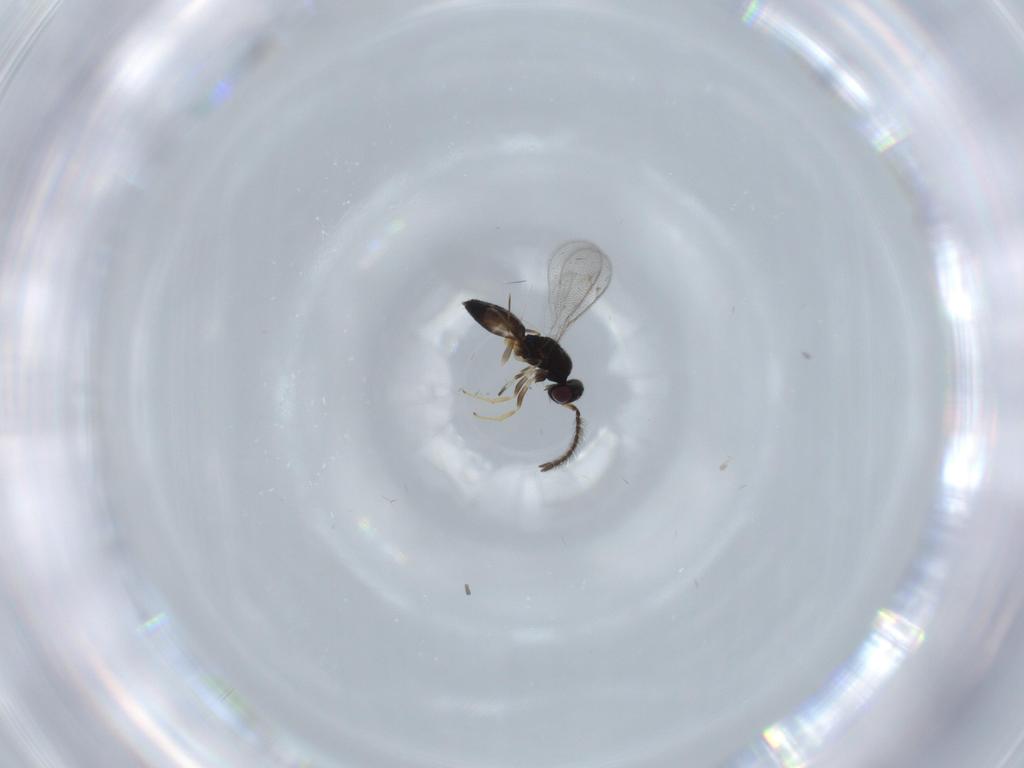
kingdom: Animalia
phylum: Arthropoda
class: Insecta
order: Hymenoptera
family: Eupelmidae
